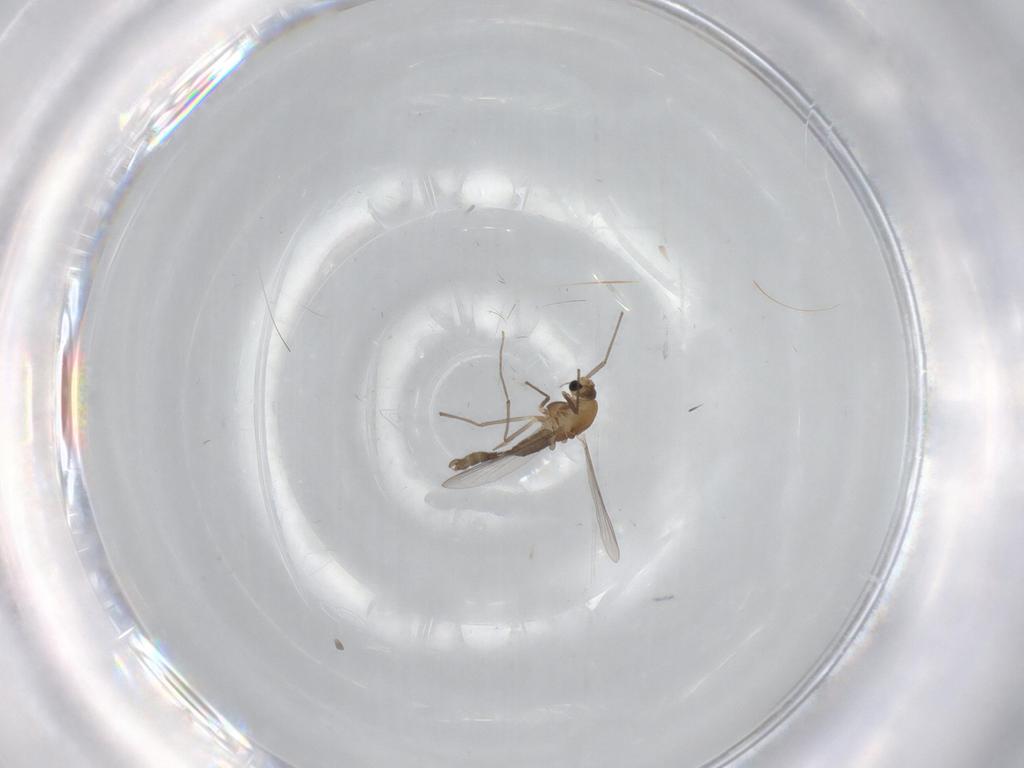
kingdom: Animalia
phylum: Arthropoda
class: Insecta
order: Diptera
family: Chironomidae
